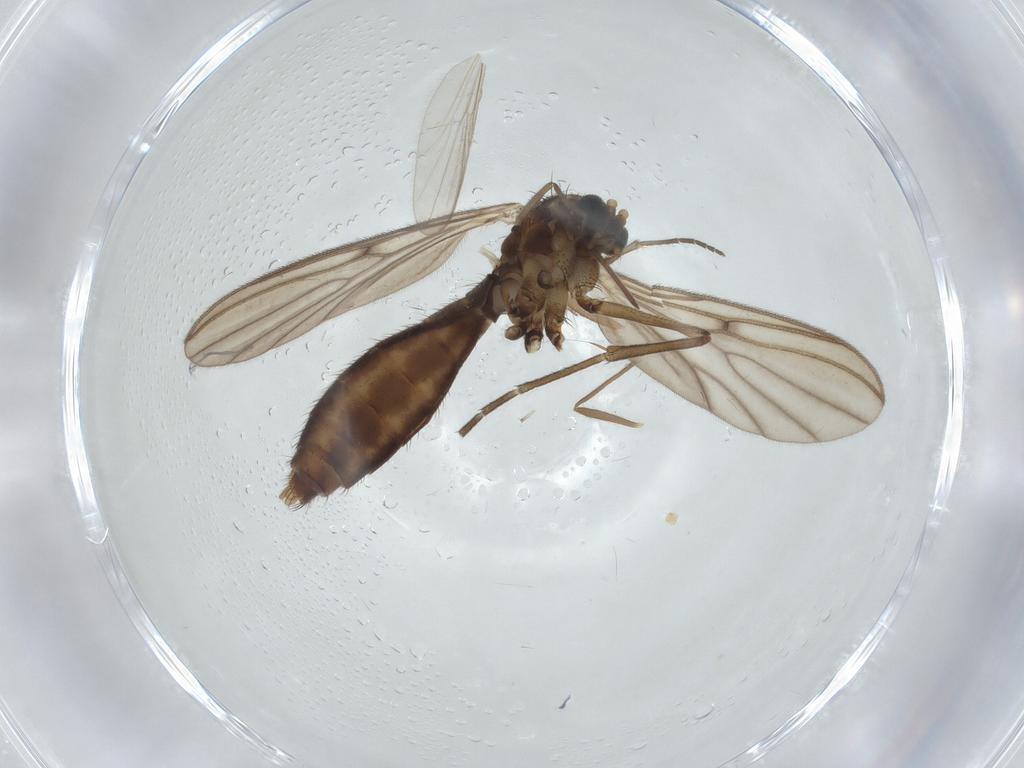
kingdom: Animalia
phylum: Arthropoda
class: Insecta
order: Diptera
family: Mycetophilidae
